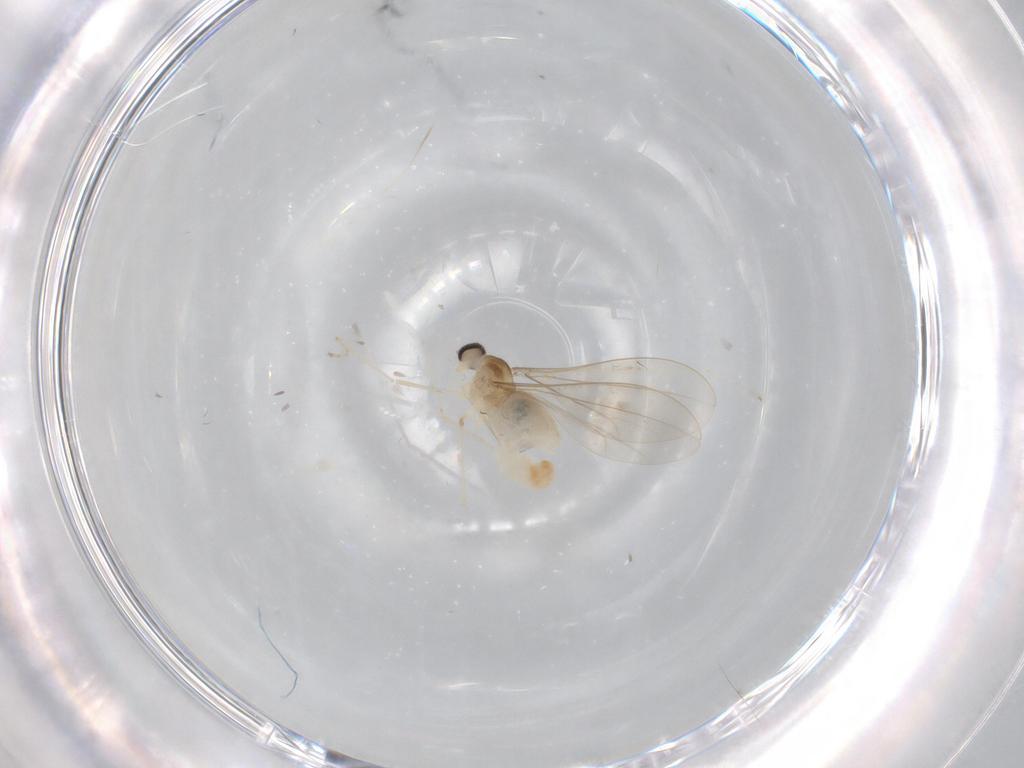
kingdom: Animalia
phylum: Arthropoda
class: Insecta
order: Diptera
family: Cecidomyiidae
